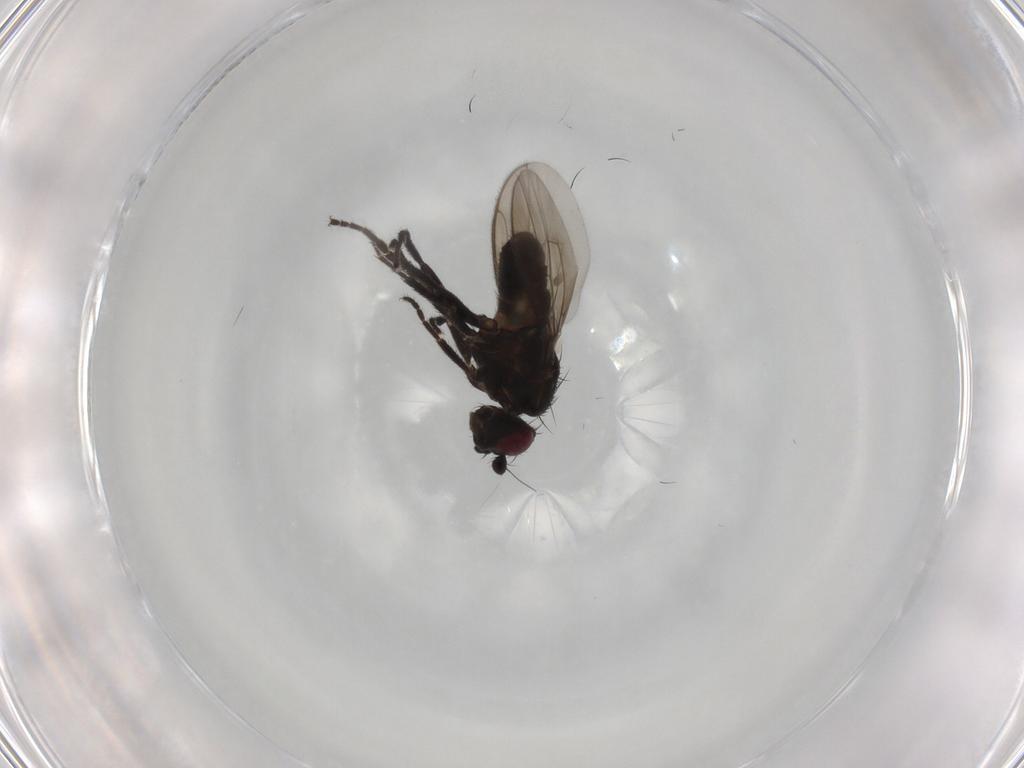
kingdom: Animalia
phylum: Arthropoda
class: Insecta
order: Diptera
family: Sphaeroceridae
